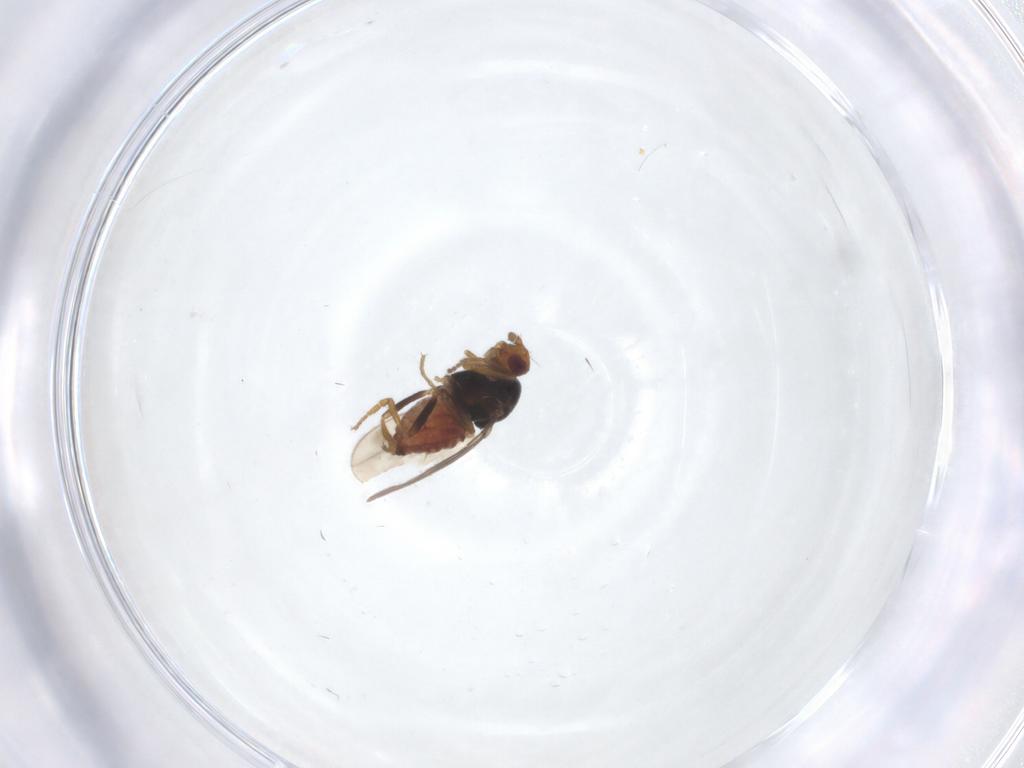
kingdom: Animalia
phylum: Arthropoda
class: Insecta
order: Diptera
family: Sphaeroceridae
